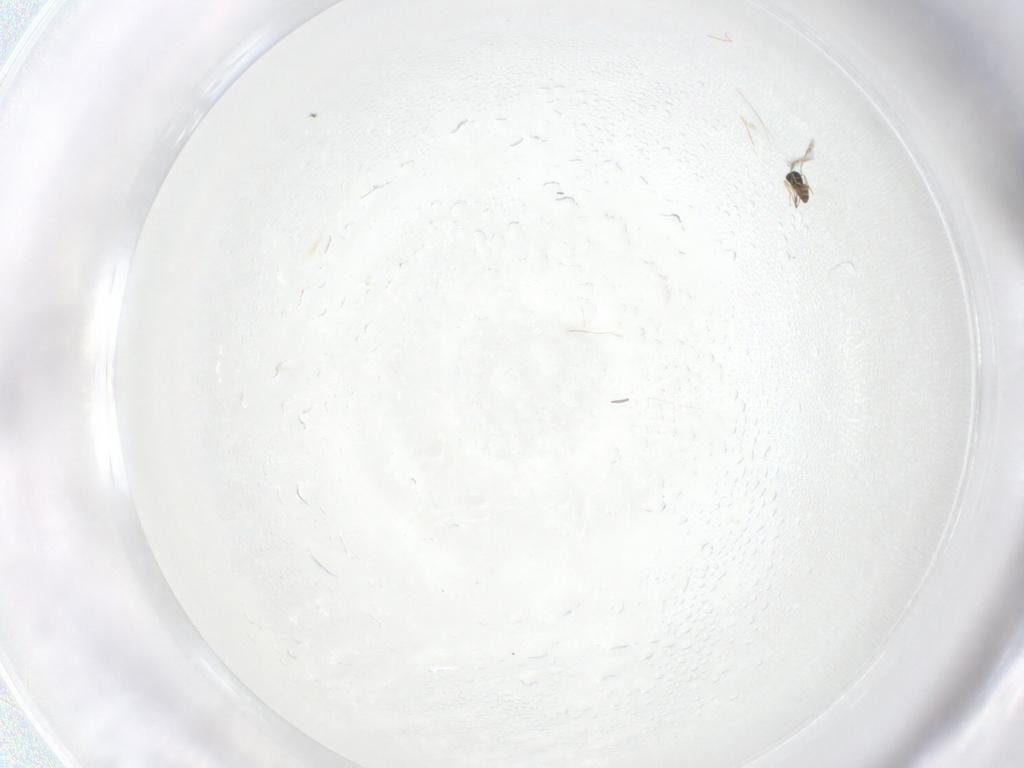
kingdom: Animalia
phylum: Arthropoda
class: Insecta
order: Hymenoptera
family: Mymaridae
